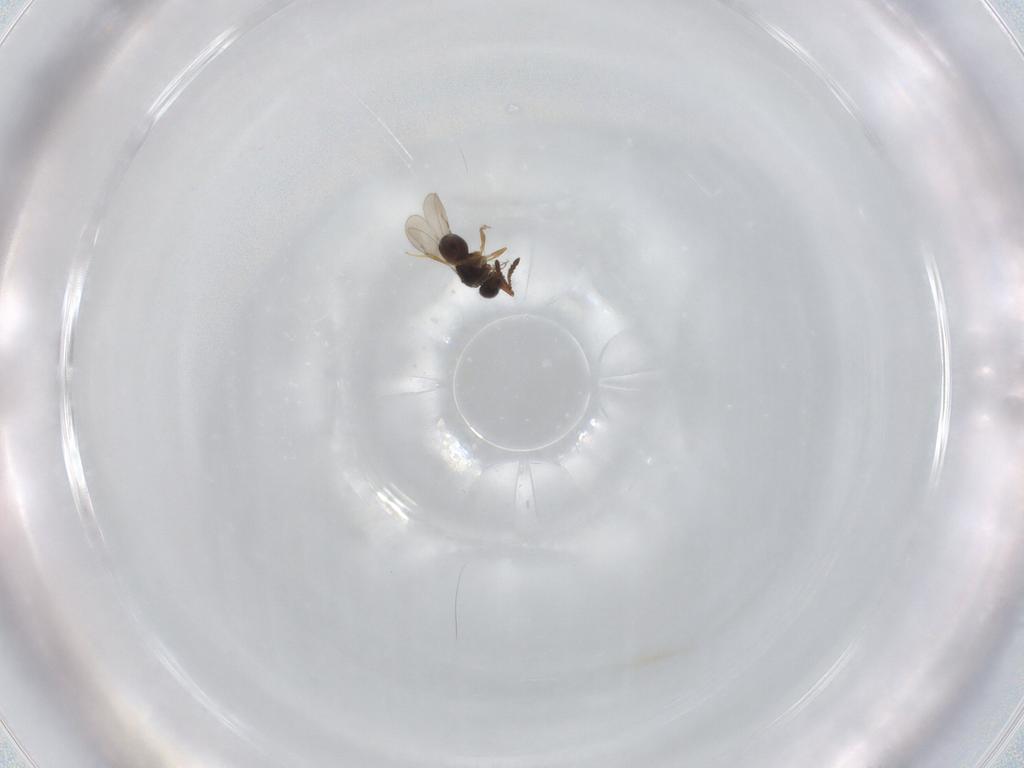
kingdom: Animalia
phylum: Arthropoda
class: Insecta
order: Hymenoptera
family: Ceraphronidae
